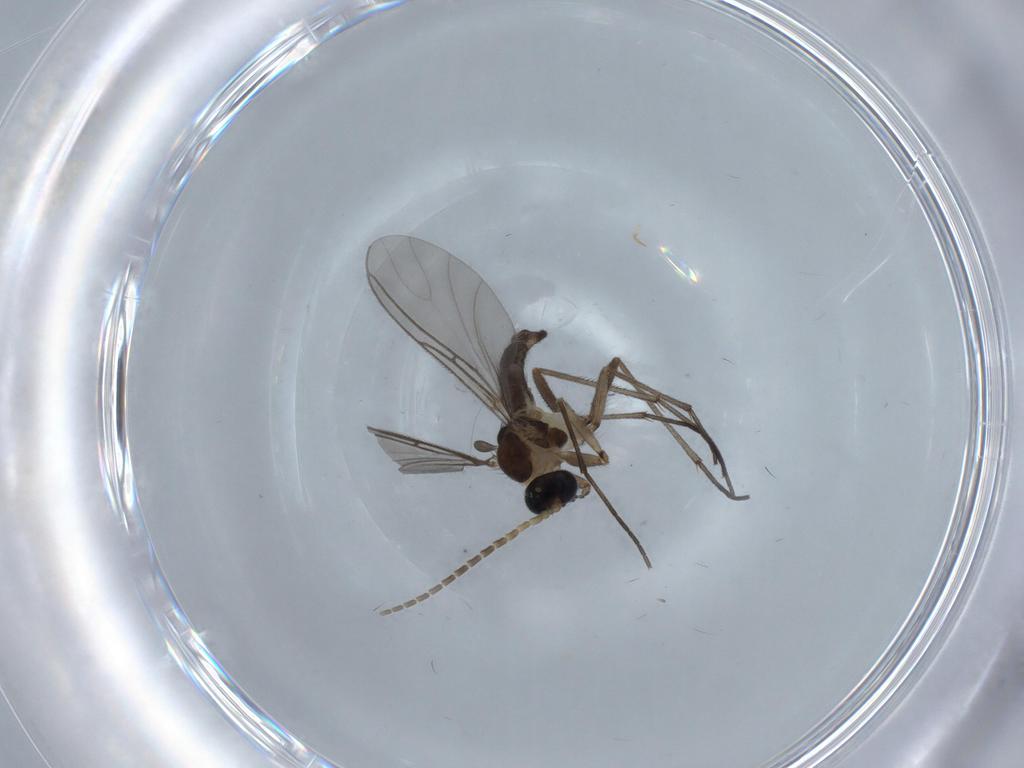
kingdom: Animalia
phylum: Arthropoda
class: Insecta
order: Diptera
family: Sciaridae
